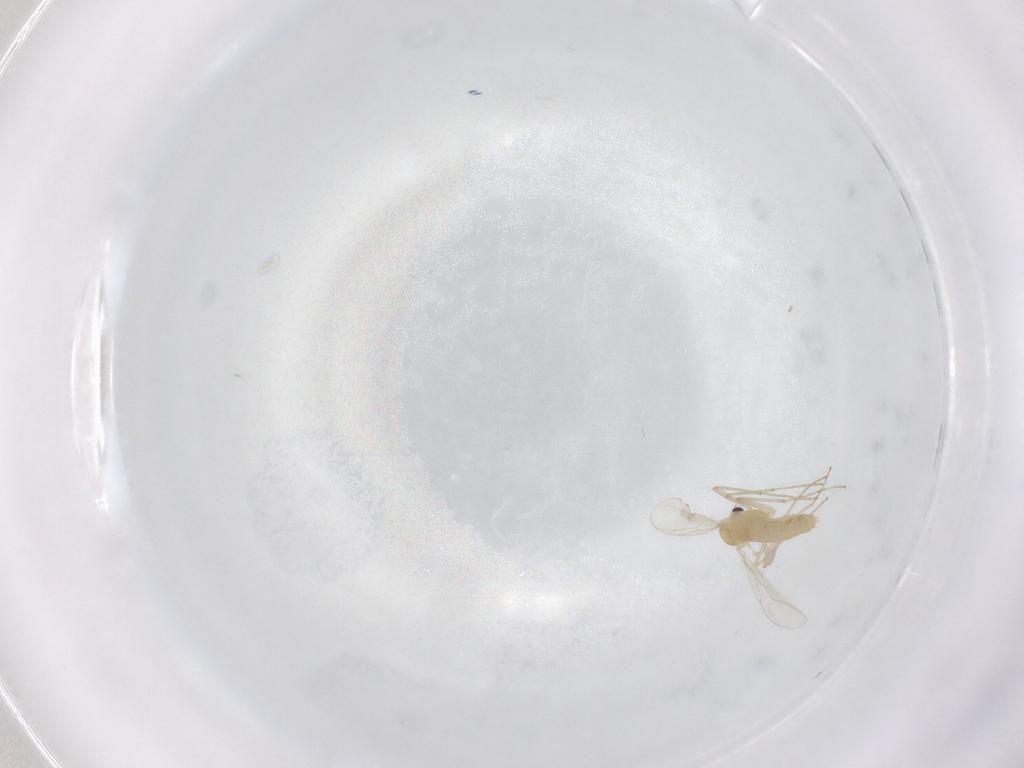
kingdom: Animalia
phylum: Arthropoda
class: Insecta
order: Diptera
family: Chironomidae
